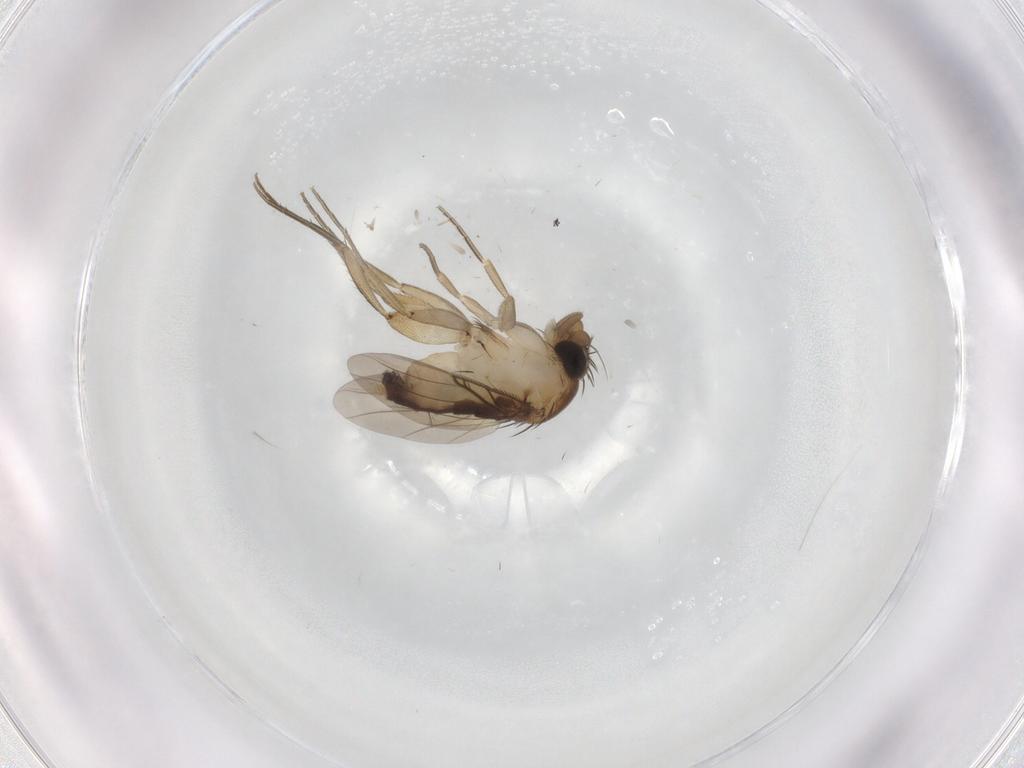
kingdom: Animalia
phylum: Arthropoda
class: Insecta
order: Diptera
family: Phoridae
